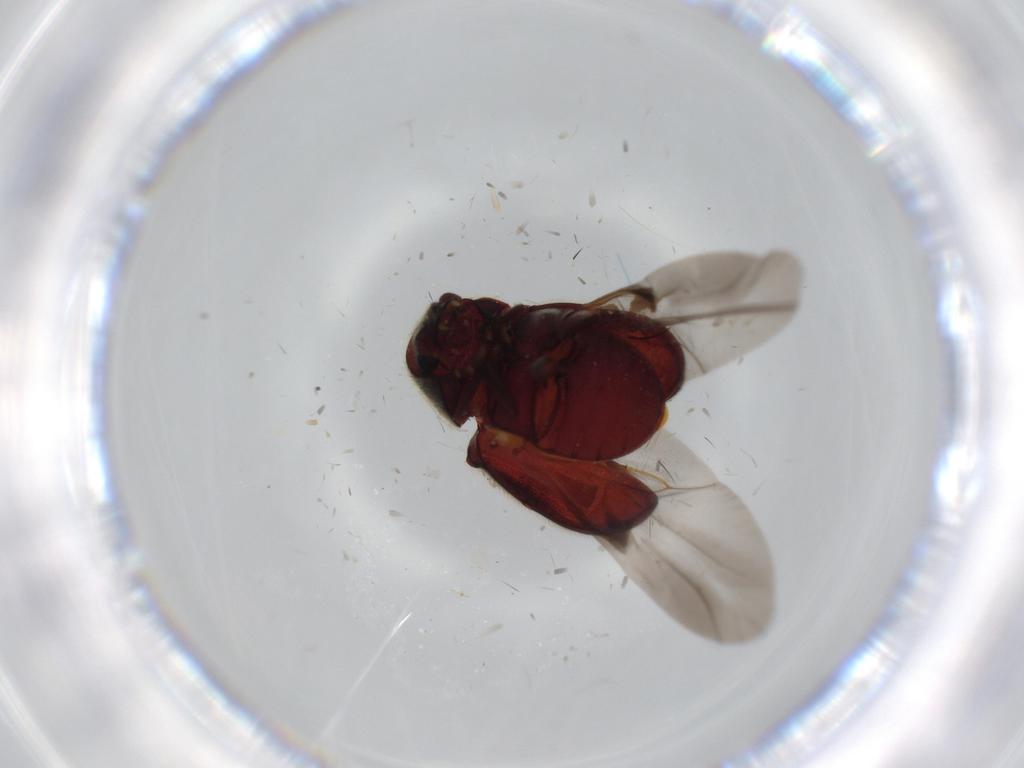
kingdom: Animalia
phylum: Arthropoda
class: Insecta
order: Coleoptera
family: Ptinidae
